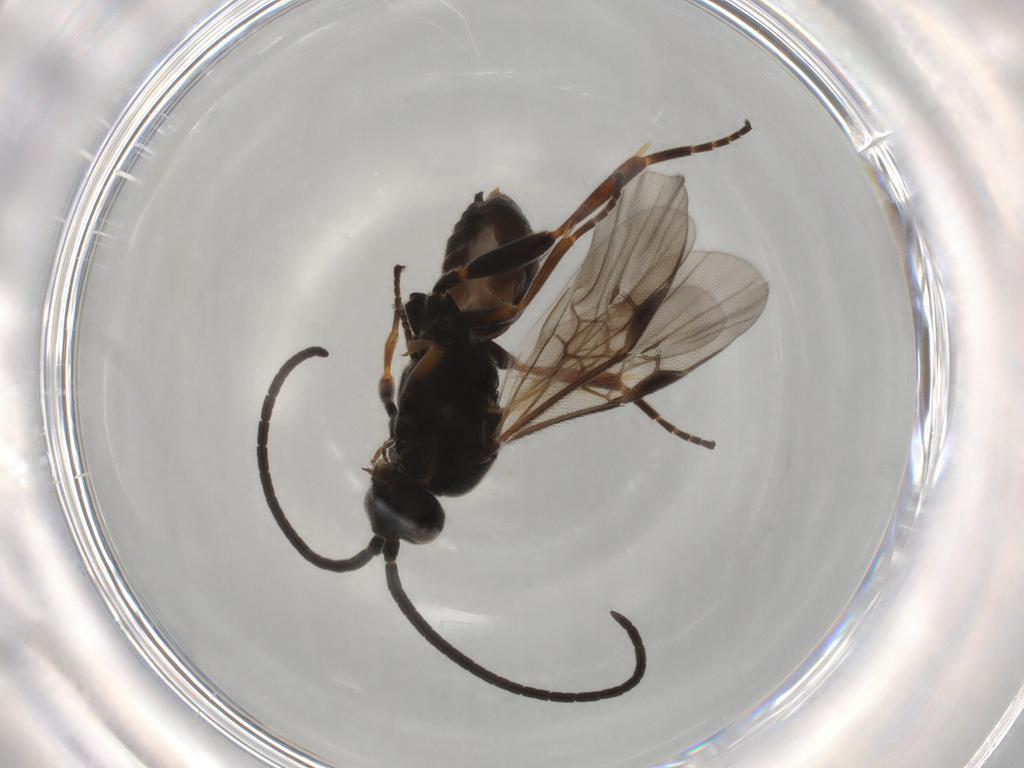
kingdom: Animalia
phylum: Arthropoda
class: Insecta
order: Hymenoptera
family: Braconidae
